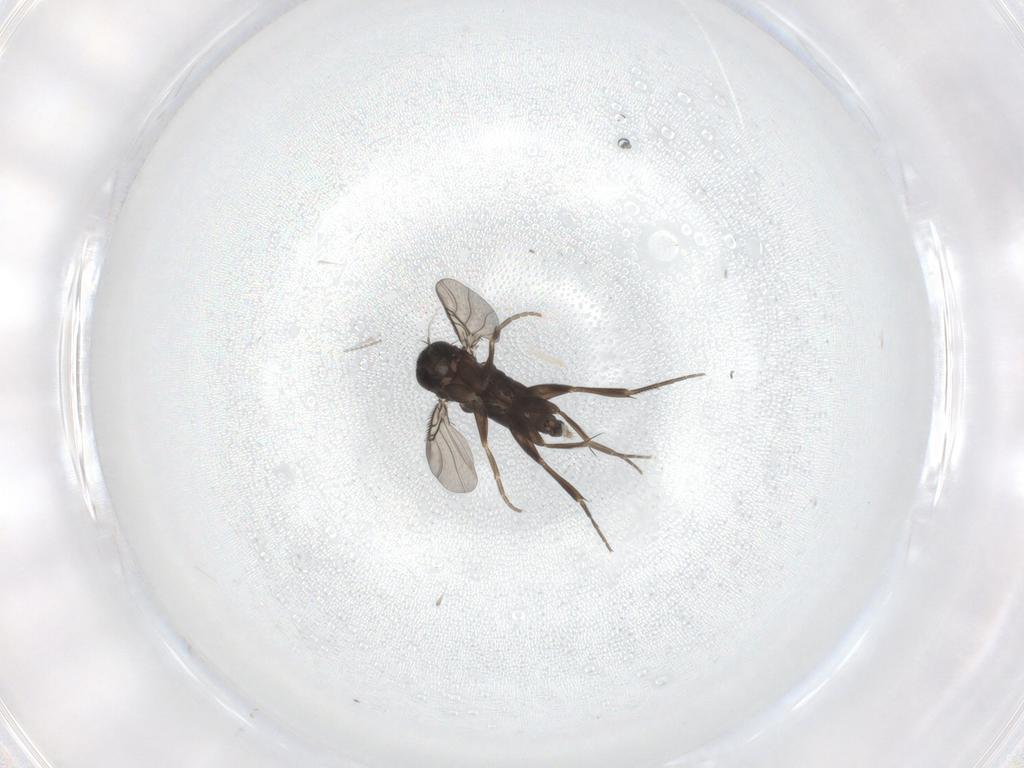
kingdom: Animalia
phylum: Arthropoda
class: Insecta
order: Diptera
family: Phoridae
